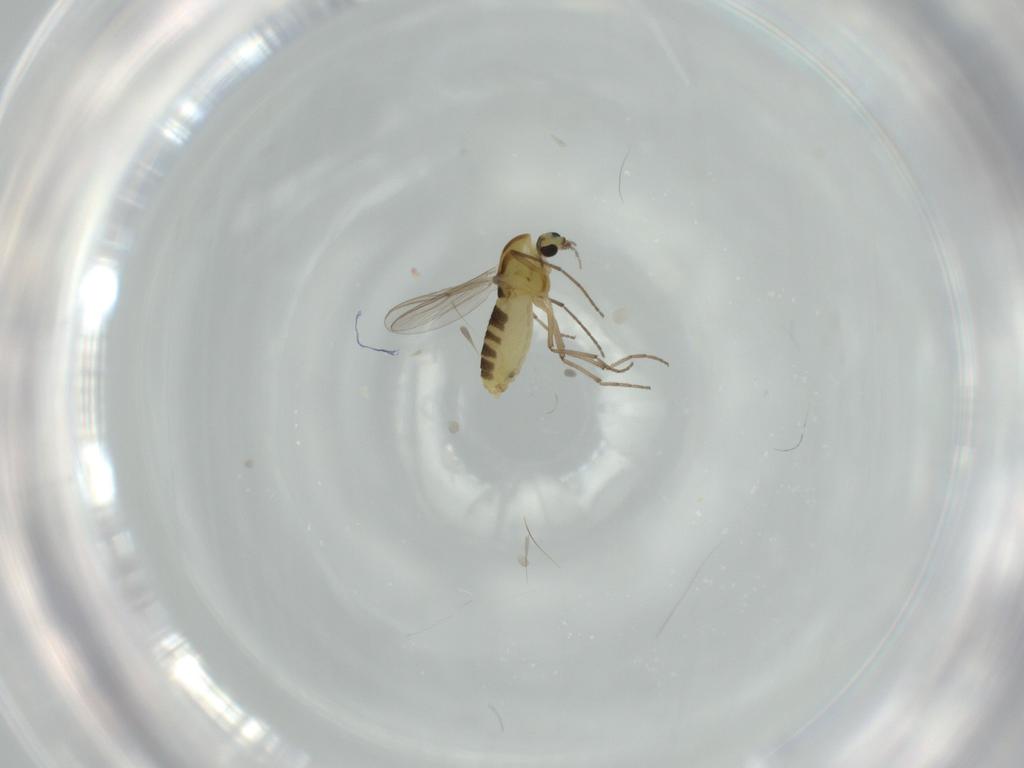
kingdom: Animalia
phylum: Arthropoda
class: Insecta
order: Diptera
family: Chironomidae
